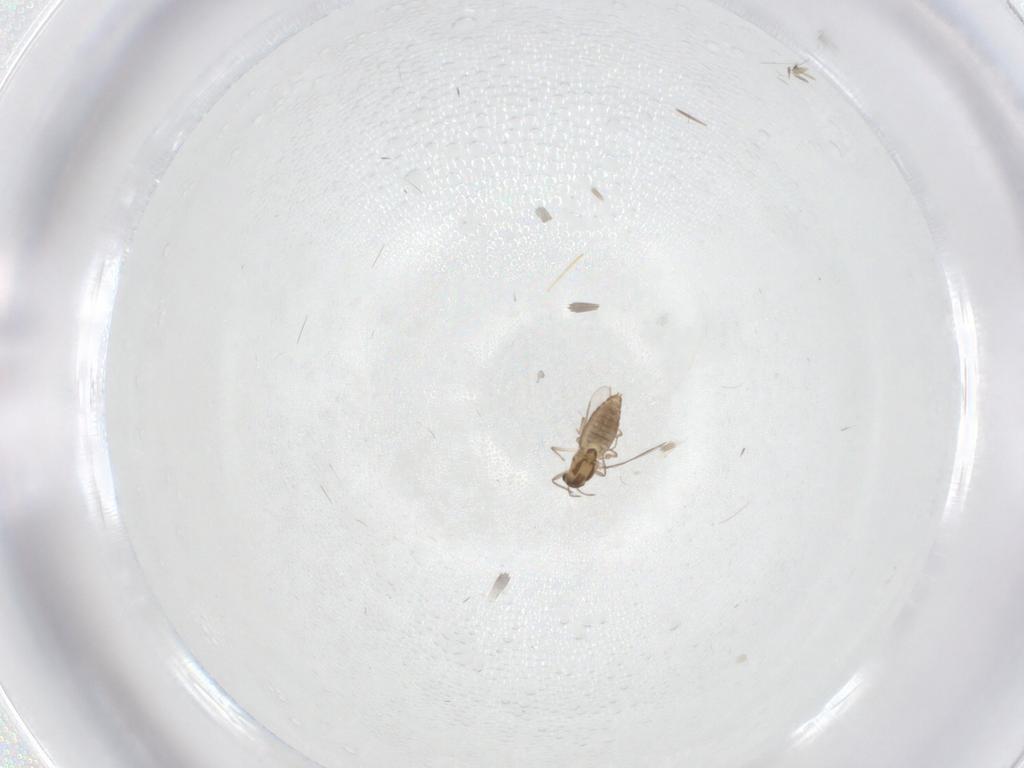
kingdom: Animalia
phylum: Arthropoda
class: Insecta
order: Diptera
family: Chironomidae
